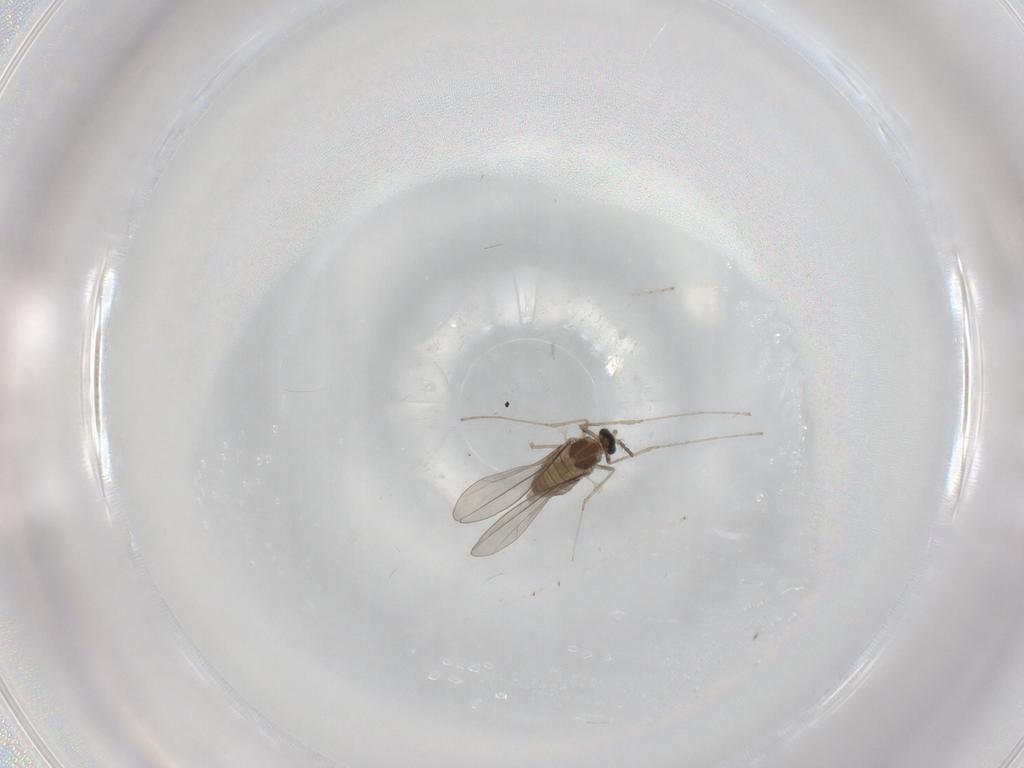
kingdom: Animalia
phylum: Arthropoda
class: Insecta
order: Diptera
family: Cecidomyiidae
